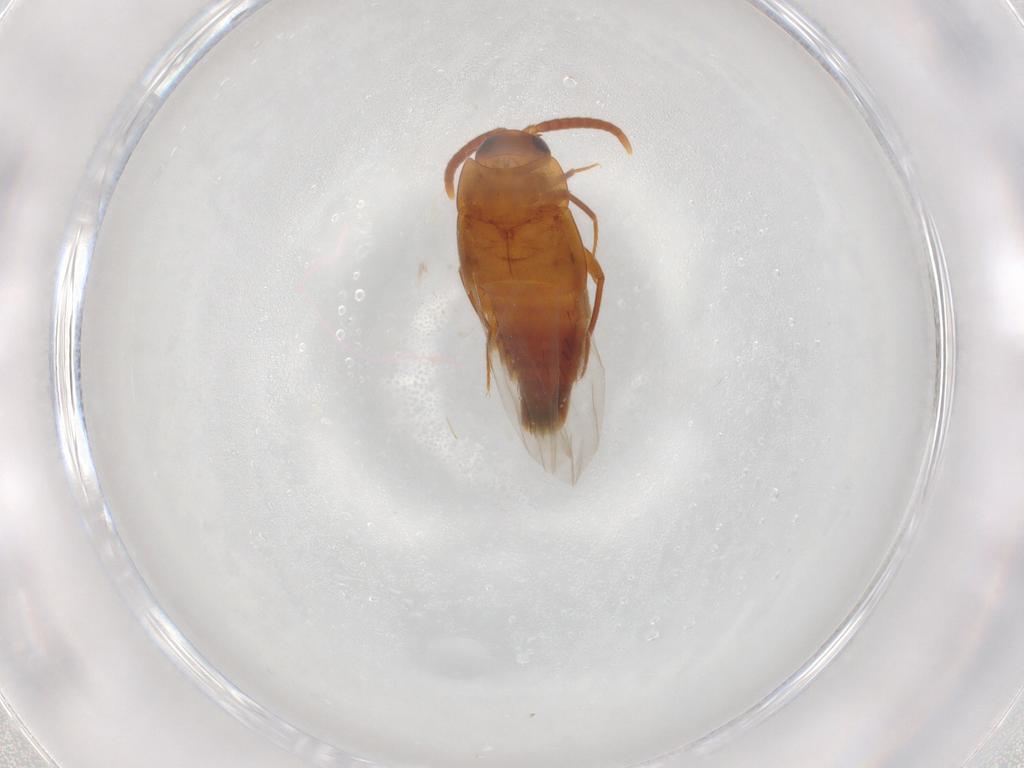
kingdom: Animalia
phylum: Arthropoda
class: Insecta
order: Coleoptera
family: Staphylinidae
